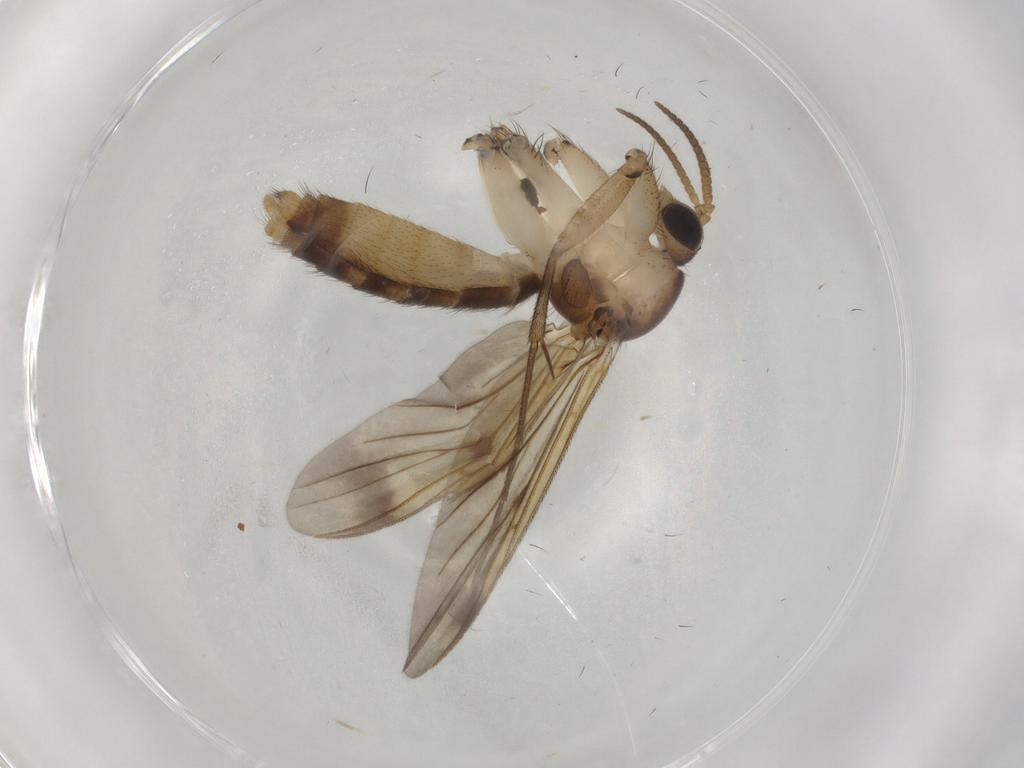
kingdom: Animalia
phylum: Arthropoda
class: Insecta
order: Diptera
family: Mycetophilidae
